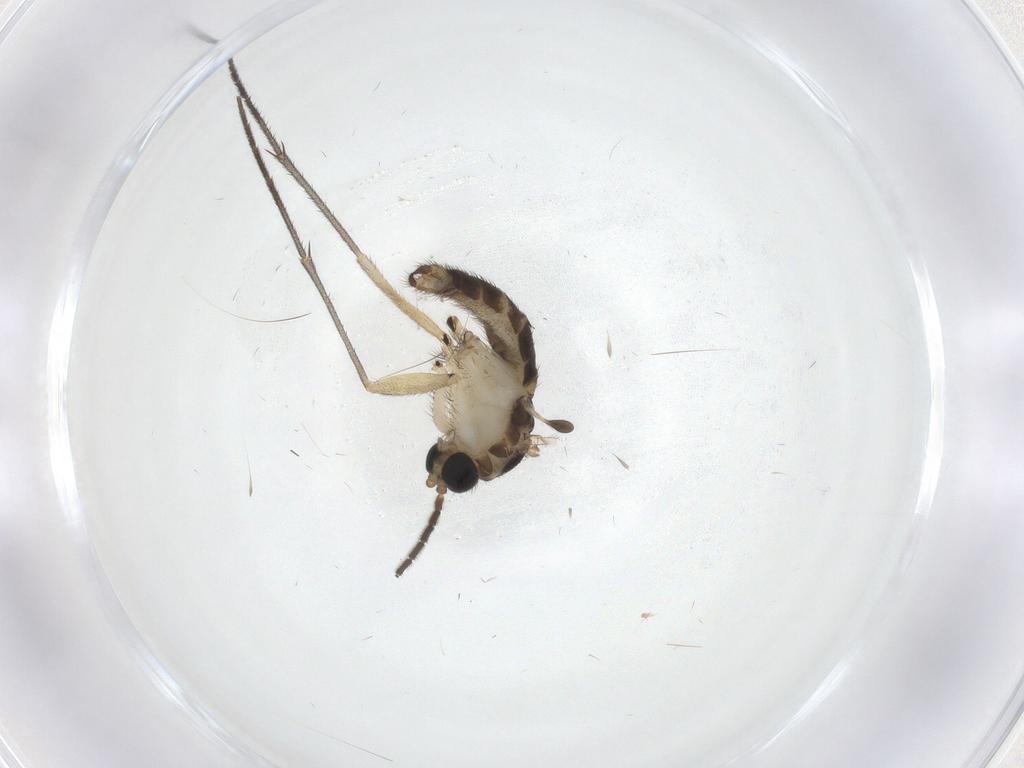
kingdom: Animalia
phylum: Arthropoda
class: Insecta
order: Diptera
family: Sciaridae
